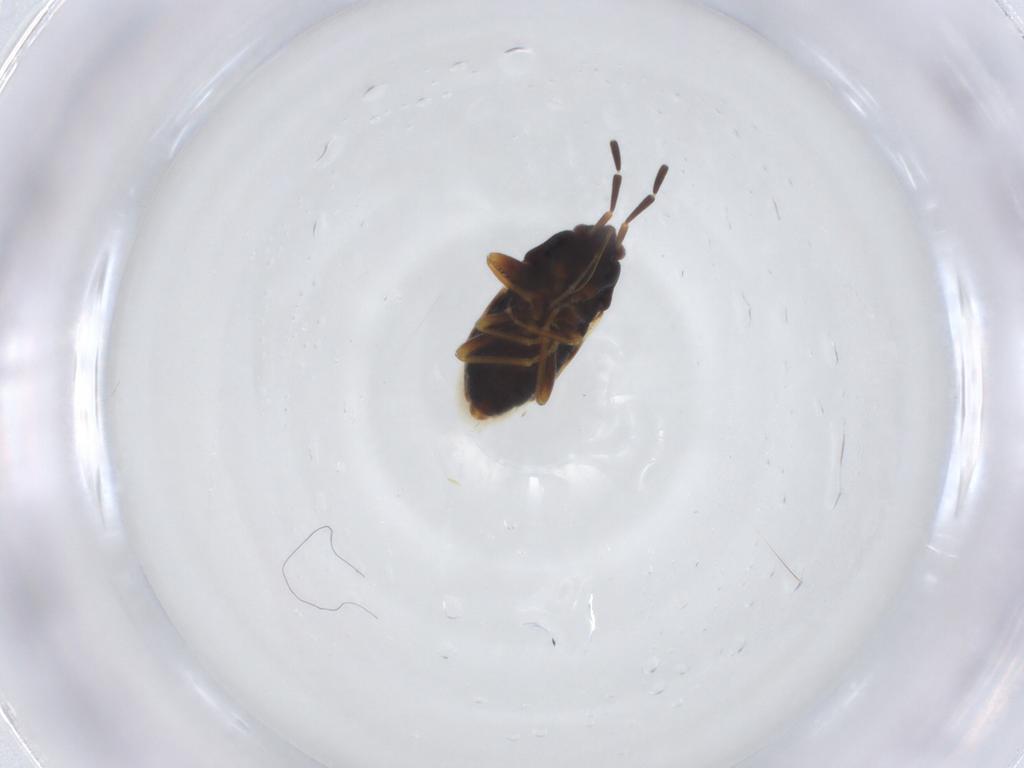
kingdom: Animalia
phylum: Arthropoda
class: Insecta
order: Hemiptera
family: Rhyparochromidae
